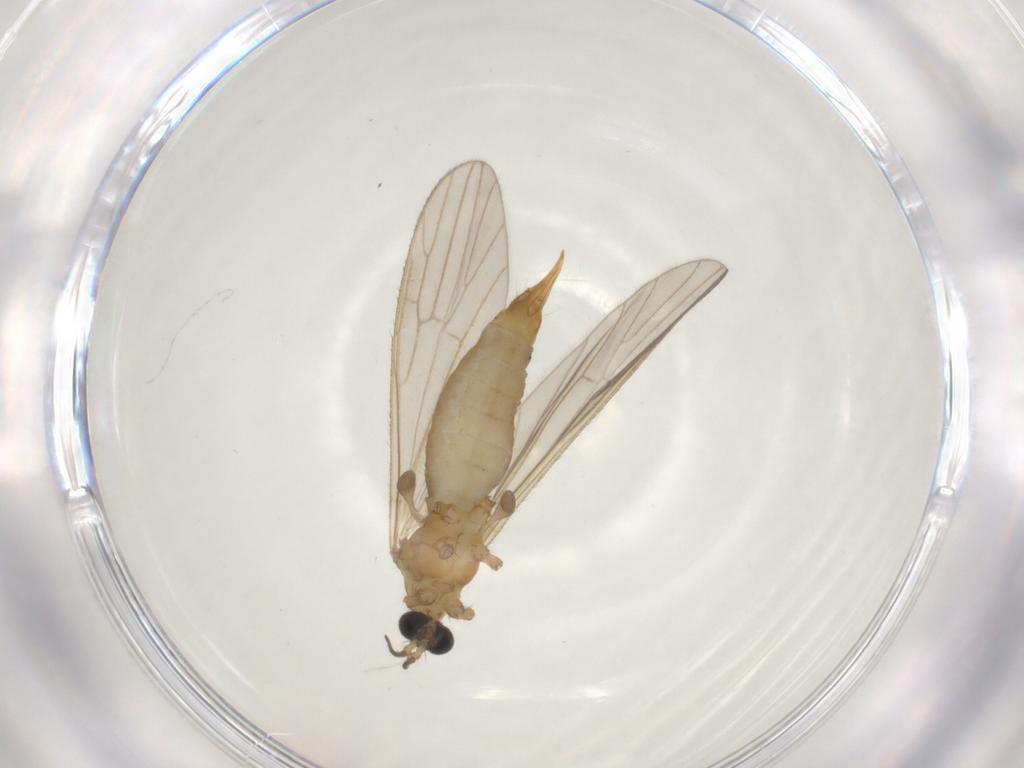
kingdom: Animalia
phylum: Arthropoda
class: Insecta
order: Diptera
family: Limoniidae
